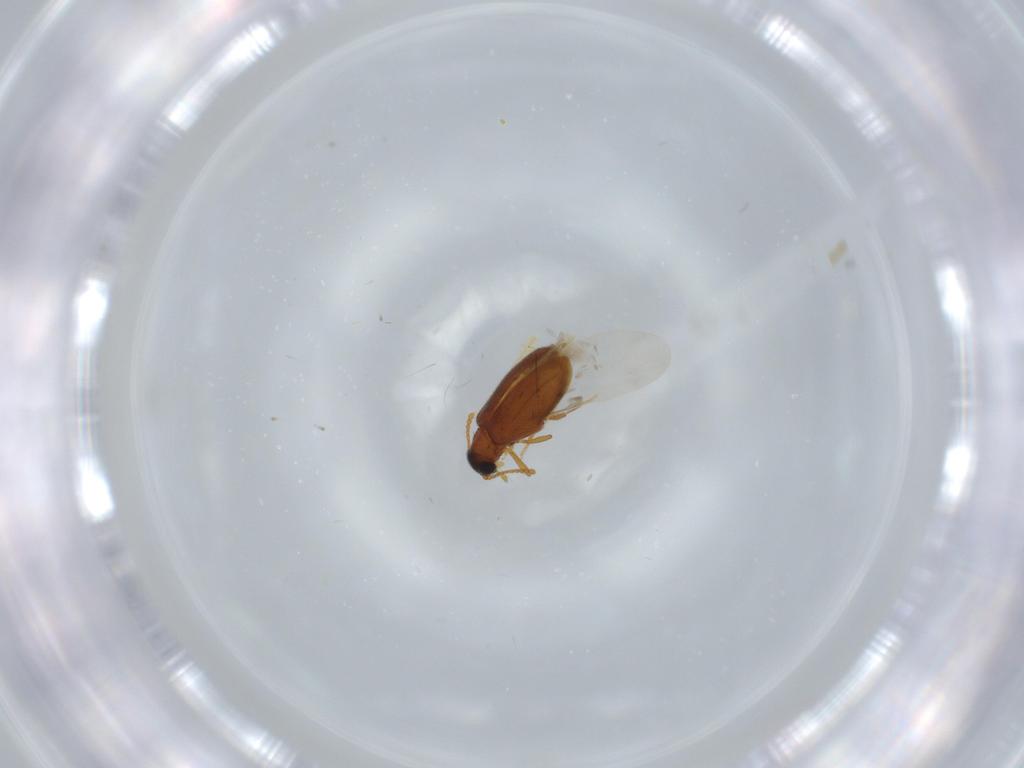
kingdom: Animalia
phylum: Arthropoda
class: Insecta
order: Coleoptera
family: Aderidae
